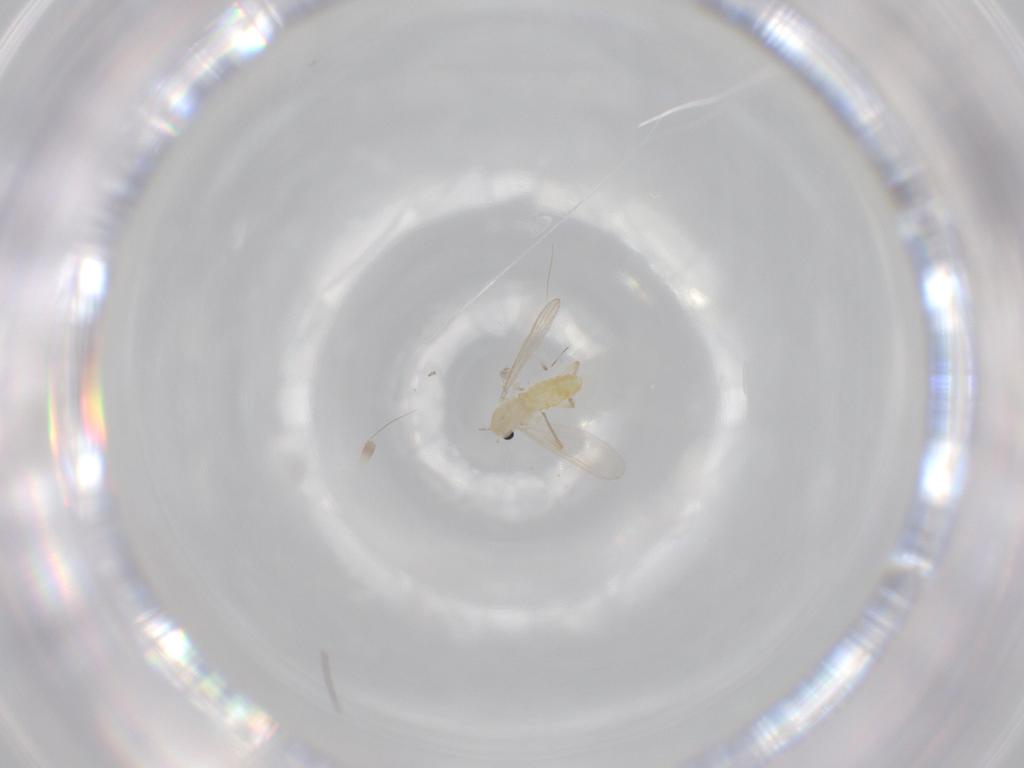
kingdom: Animalia
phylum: Arthropoda
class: Insecta
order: Diptera
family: Chironomidae
